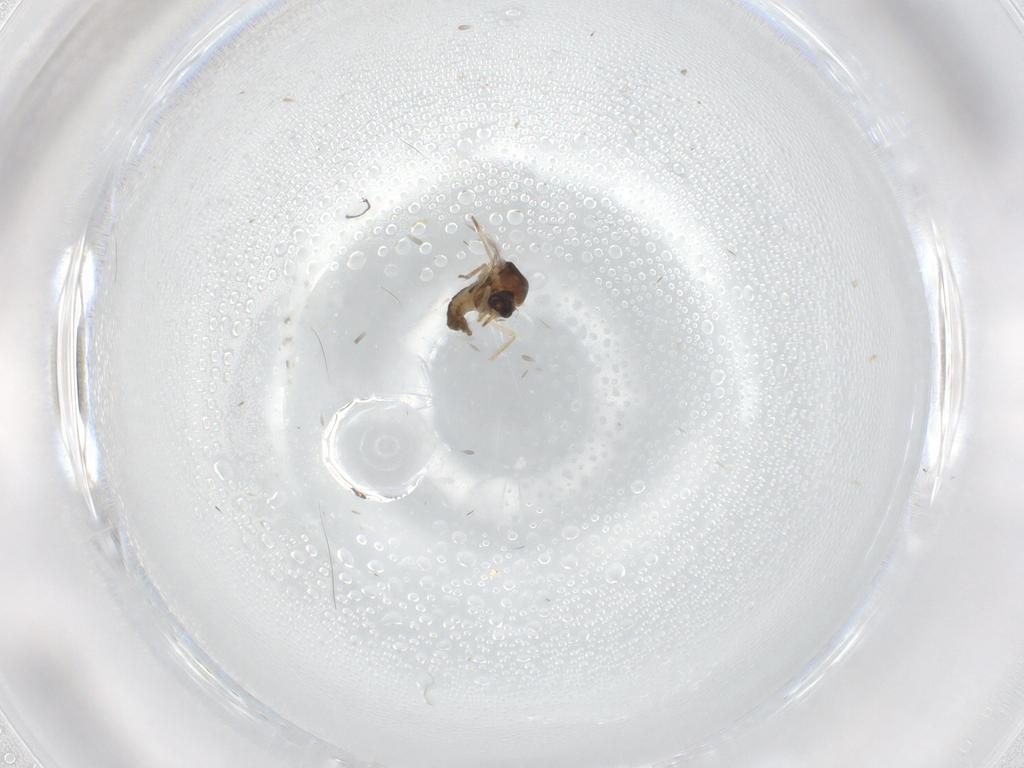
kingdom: Animalia
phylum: Arthropoda
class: Insecta
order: Diptera
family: Ceratopogonidae
